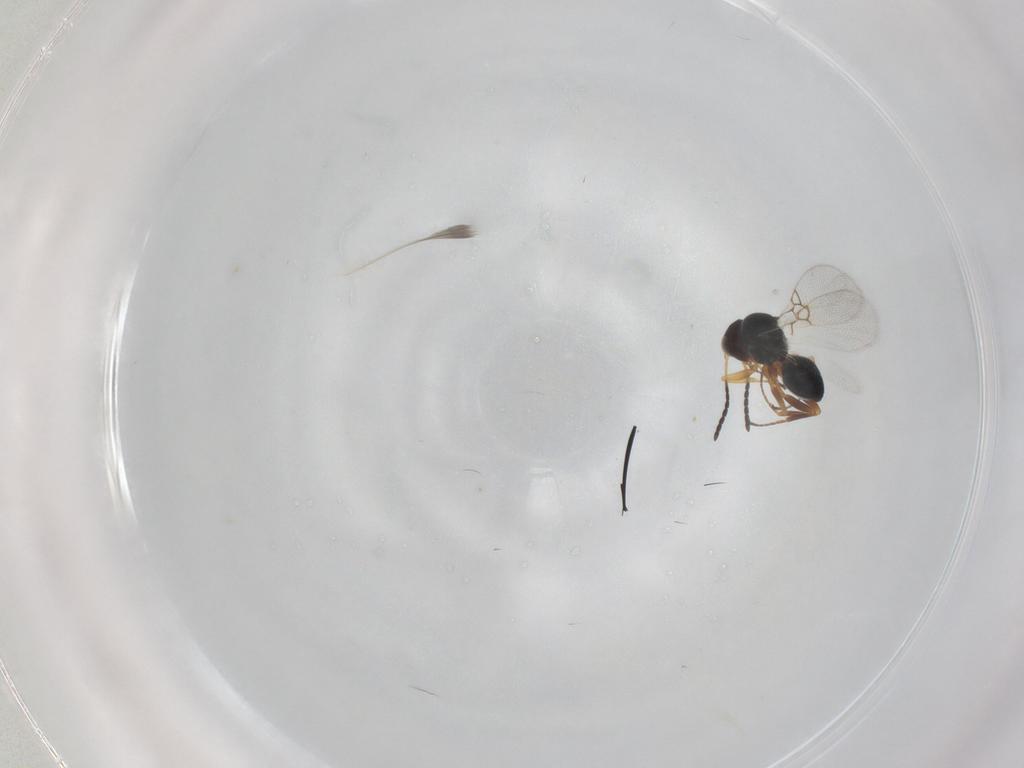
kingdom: Animalia
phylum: Arthropoda
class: Insecta
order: Hymenoptera
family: Figitidae
